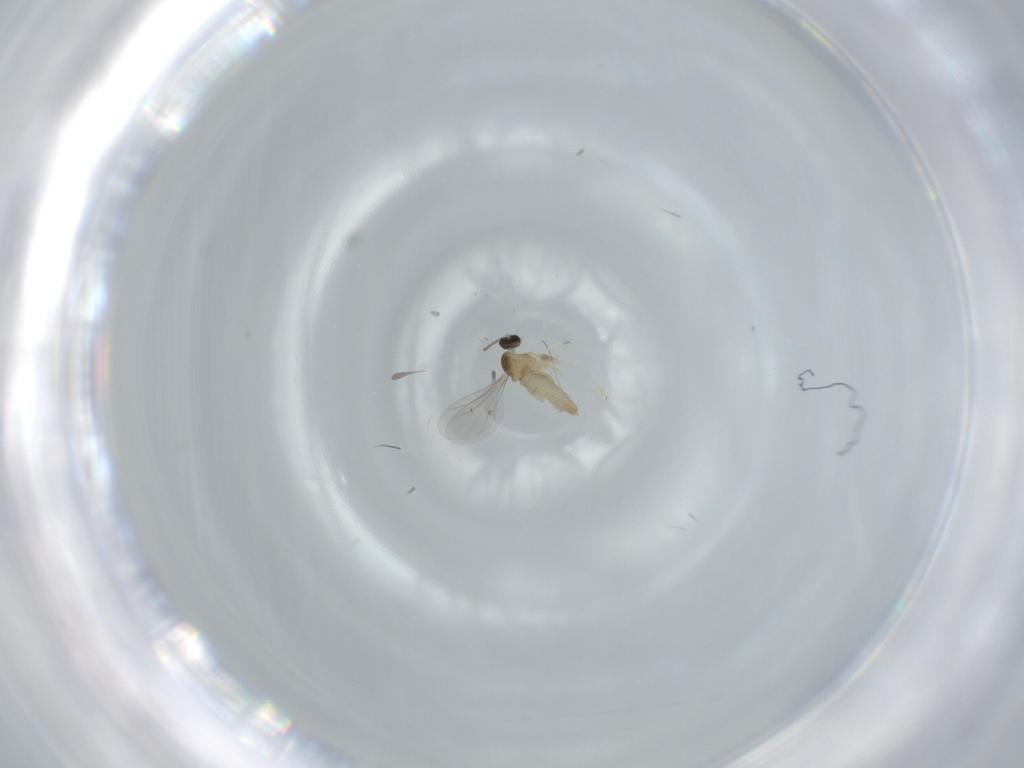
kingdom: Animalia
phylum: Arthropoda
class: Insecta
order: Diptera
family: Cecidomyiidae
